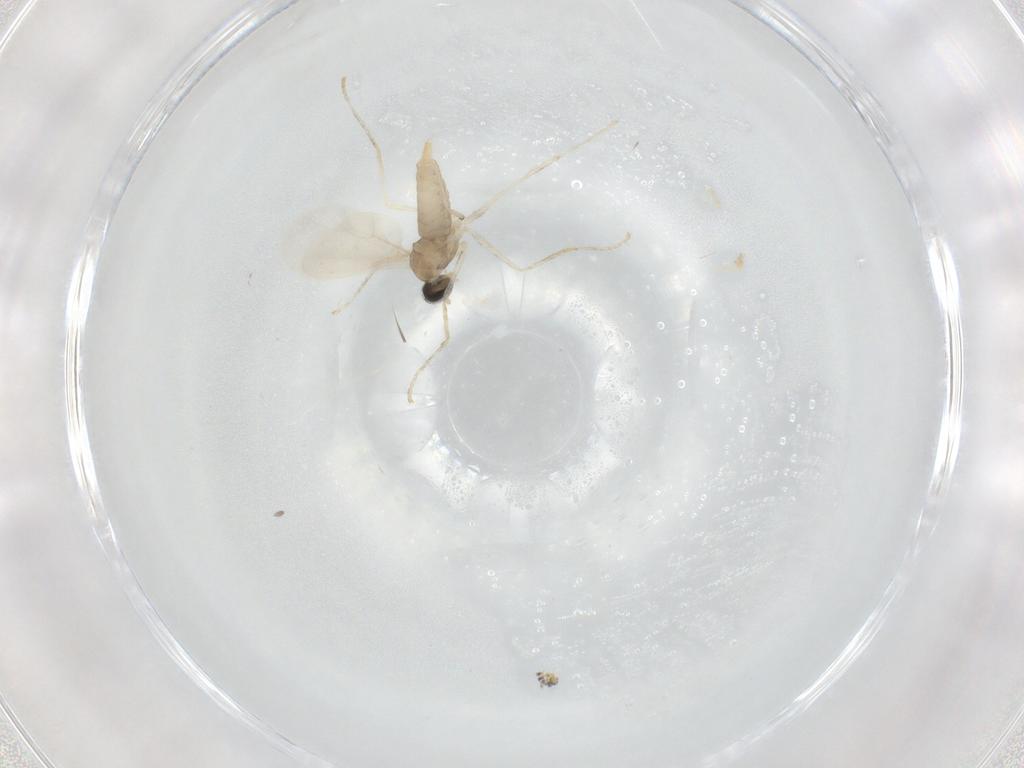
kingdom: Animalia
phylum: Arthropoda
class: Insecta
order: Diptera
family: Cecidomyiidae
